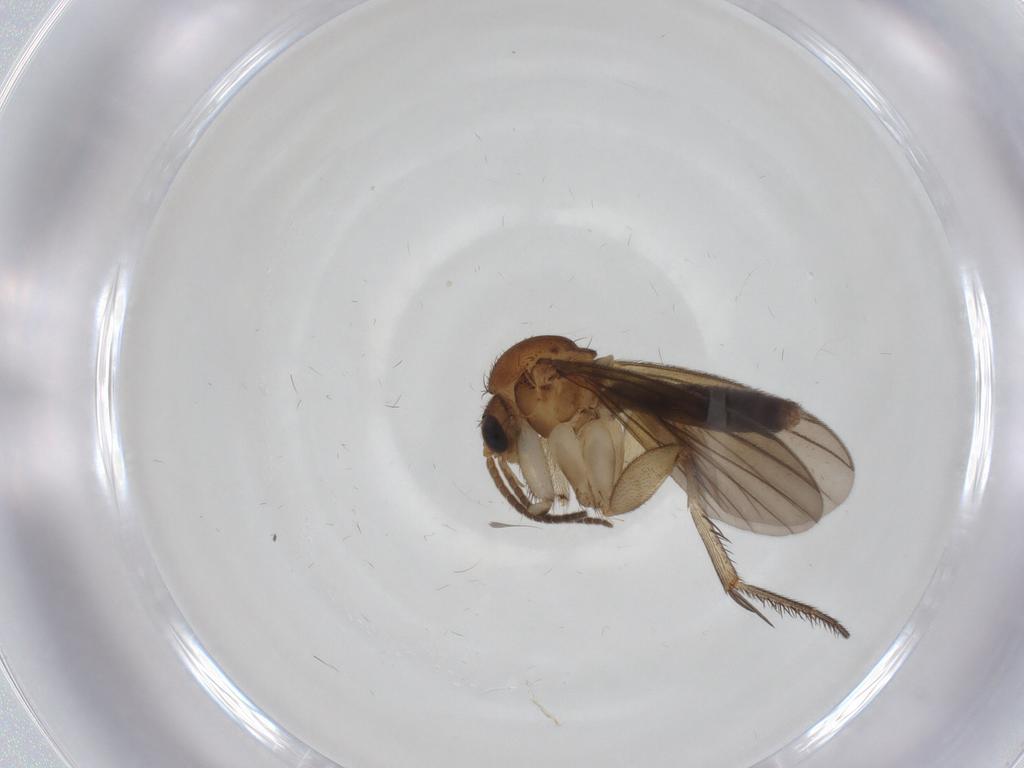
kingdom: Animalia
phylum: Arthropoda
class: Insecta
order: Diptera
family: Mycetophilidae
